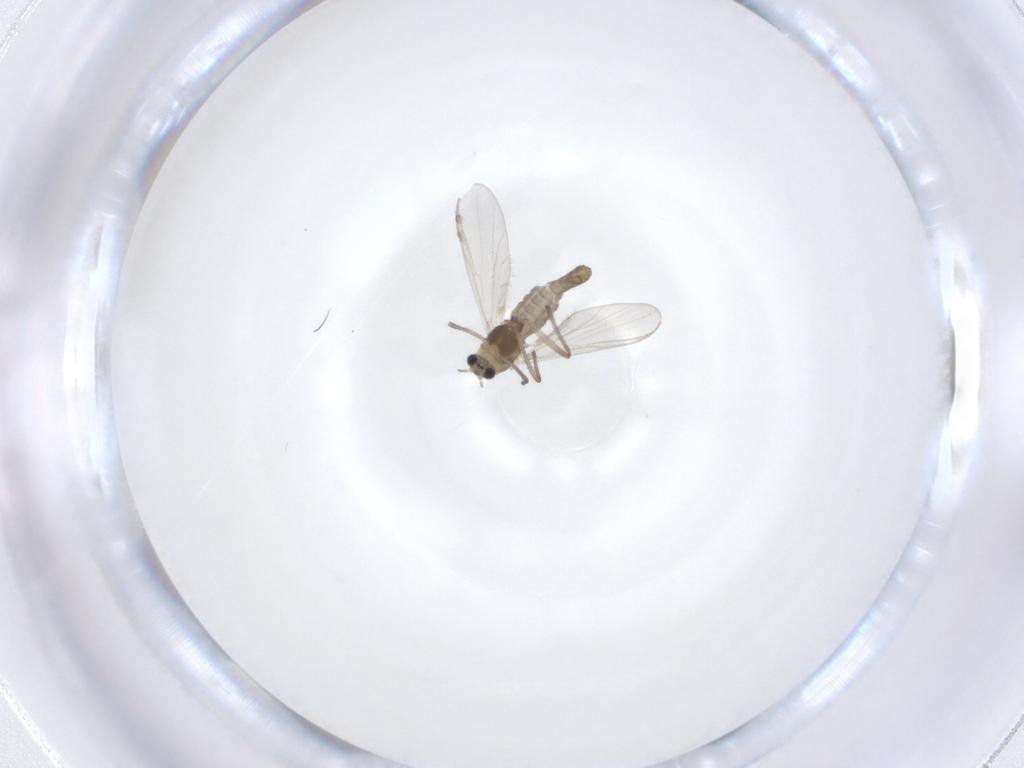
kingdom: Animalia
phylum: Arthropoda
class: Insecta
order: Diptera
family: Chironomidae
